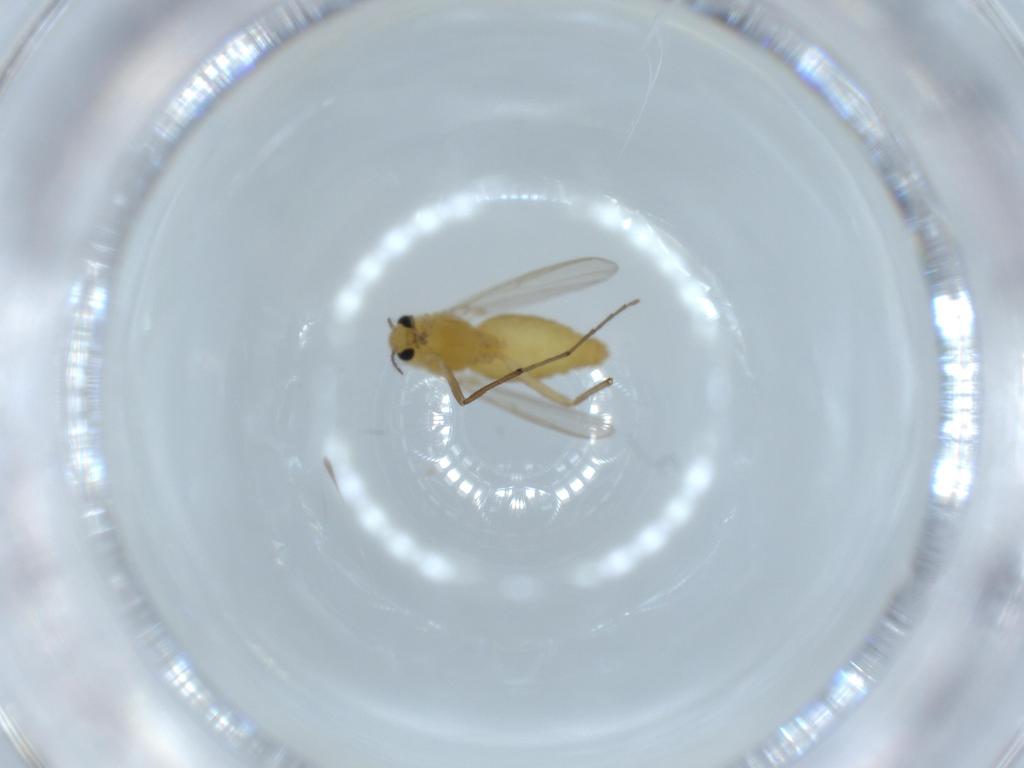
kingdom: Animalia
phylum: Arthropoda
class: Insecta
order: Diptera
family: Chironomidae
